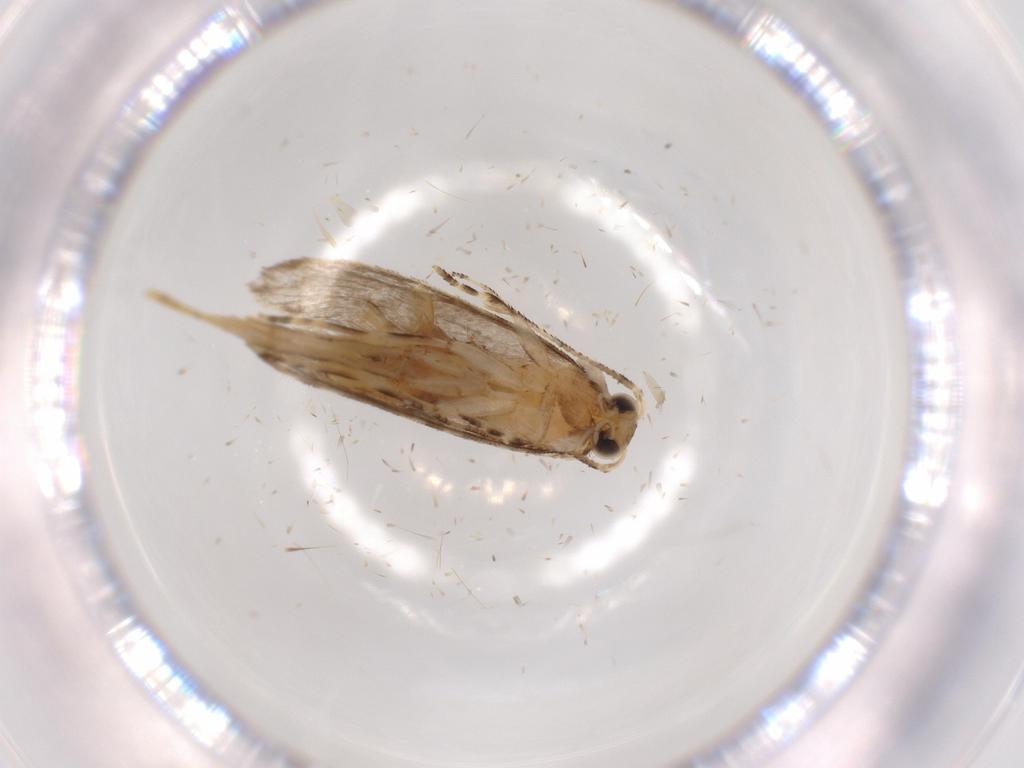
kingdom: Animalia
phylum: Arthropoda
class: Insecta
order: Lepidoptera
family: Tineidae
